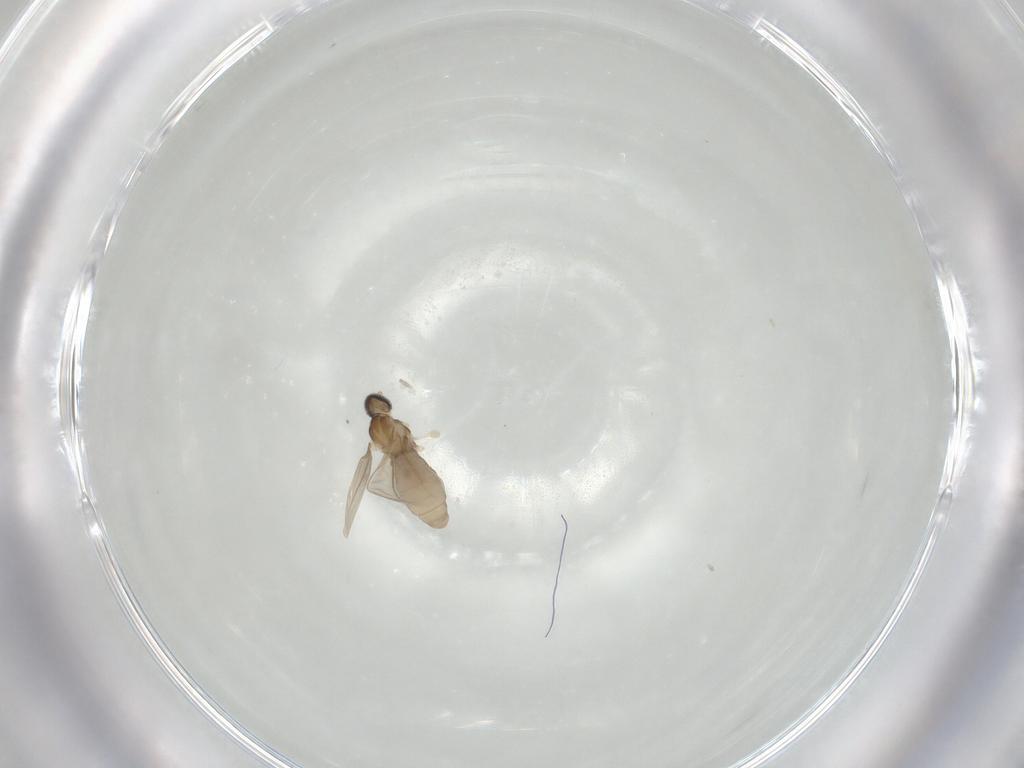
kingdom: Animalia
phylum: Arthropoda
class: Insecta
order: Diptera
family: Cecidomyiidae
